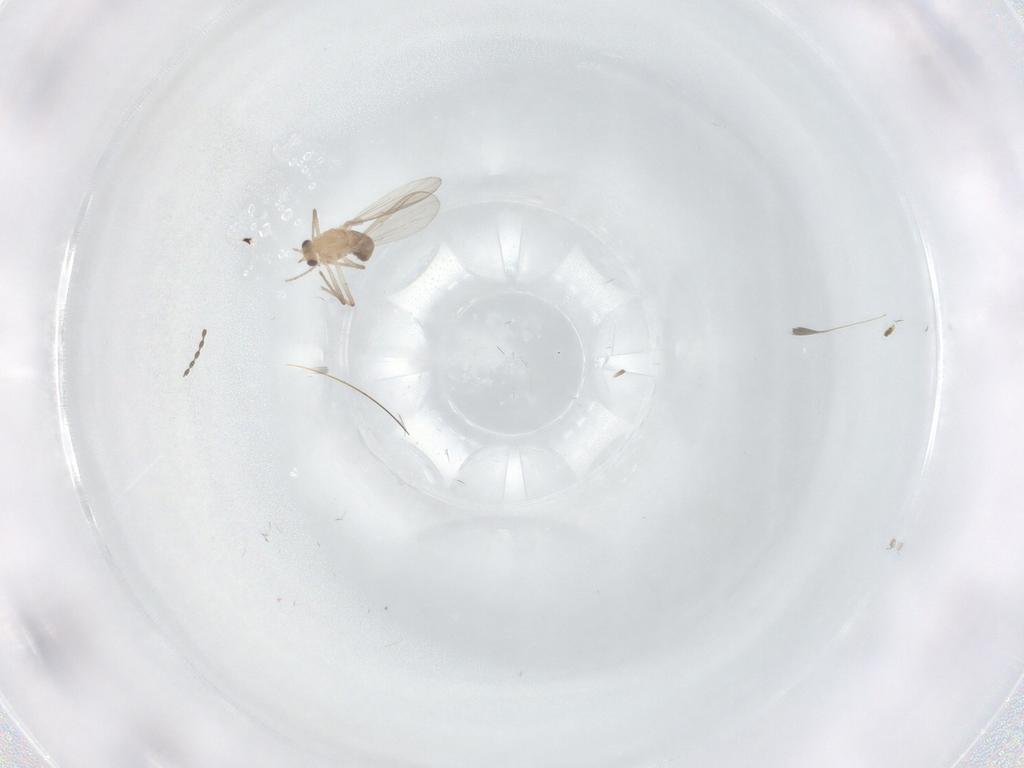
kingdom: Animalia
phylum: Arthropoda
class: Insecta
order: Diptera
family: Chironomidae
